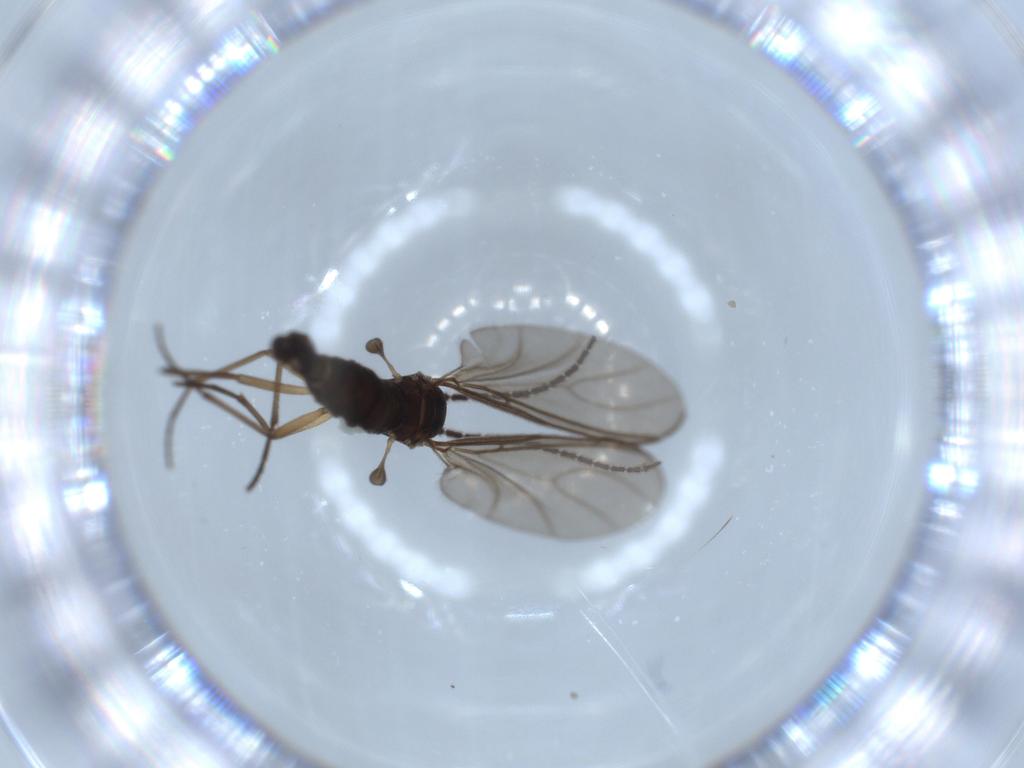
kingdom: Animalia
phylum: Arthropoda
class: Insecta
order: Diptera
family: Sciaridae
